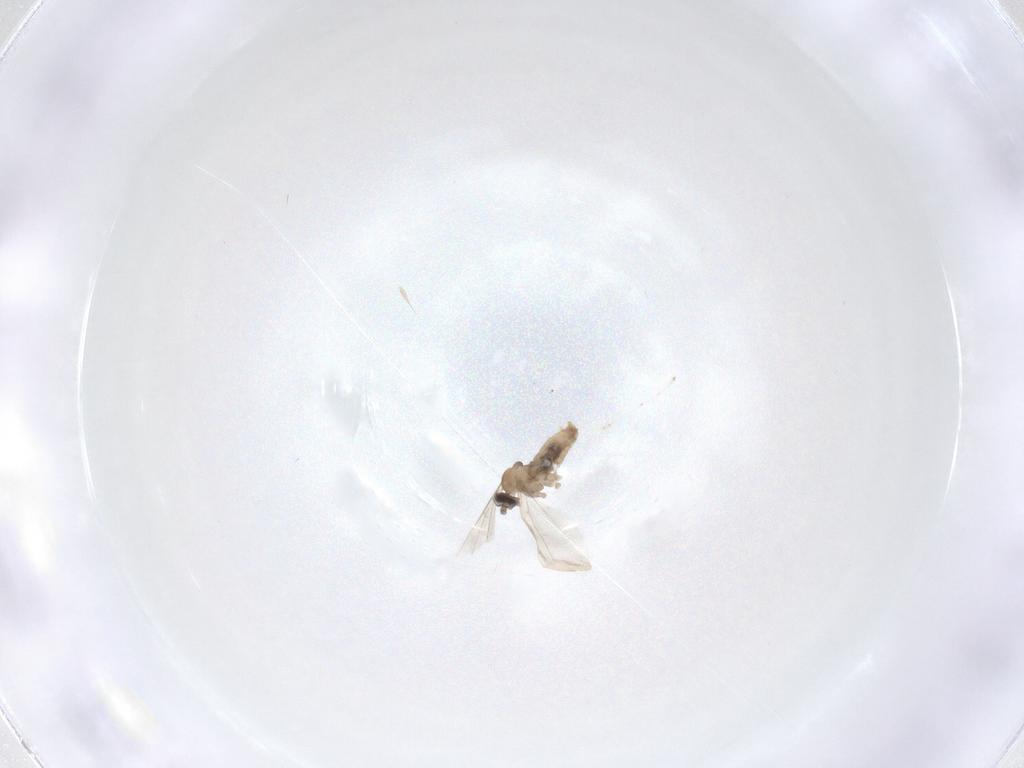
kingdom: Animalia
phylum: Arthropoda
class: Insecta
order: Diptera
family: Cecidomyiidae
